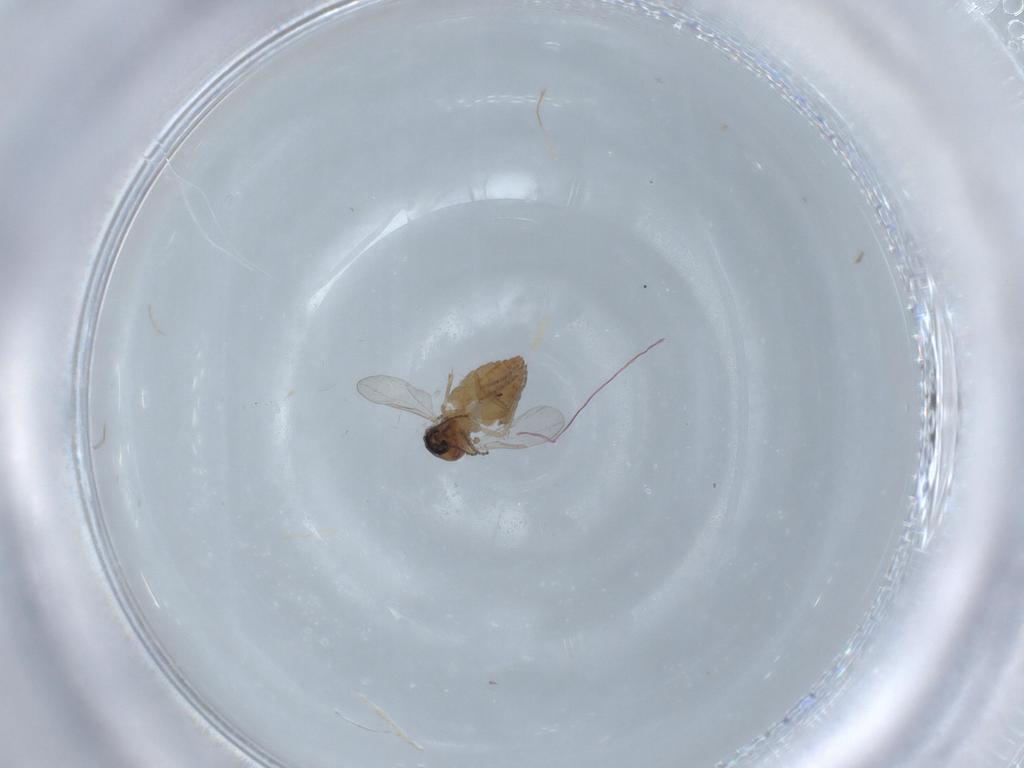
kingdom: Animalia
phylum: Arthropoda
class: Insecta
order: Diptera
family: Ceratopogonidae
